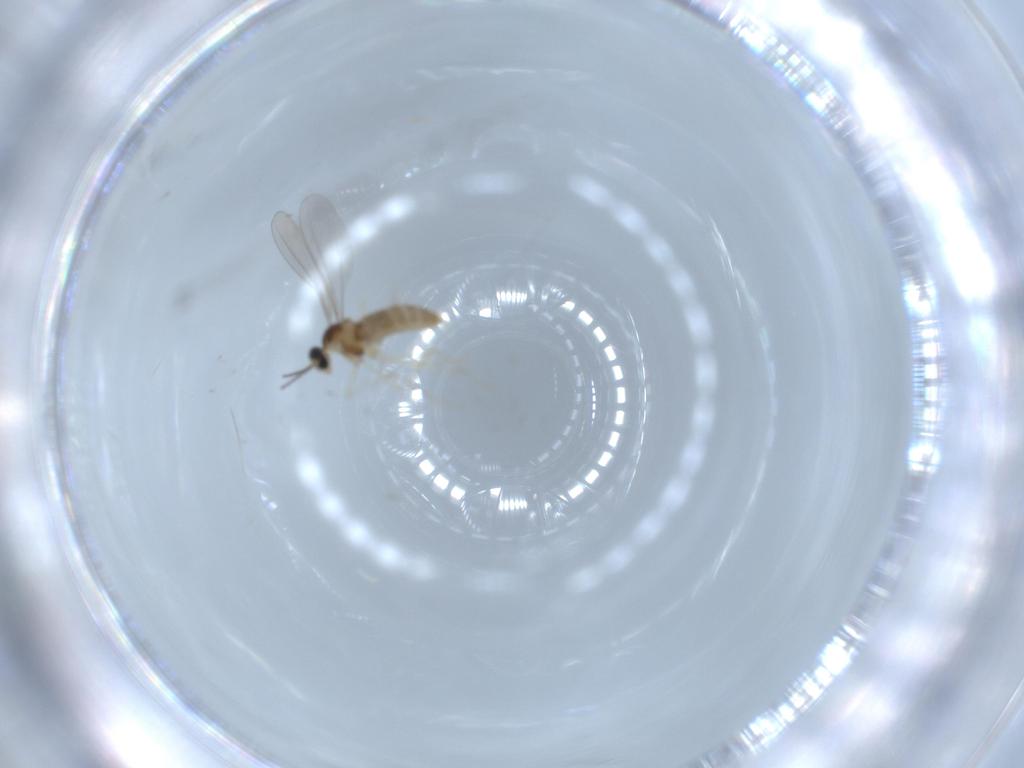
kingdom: Animalia
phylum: Arthropoda
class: Insecta
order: Diptera
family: Cecidomyiidae
